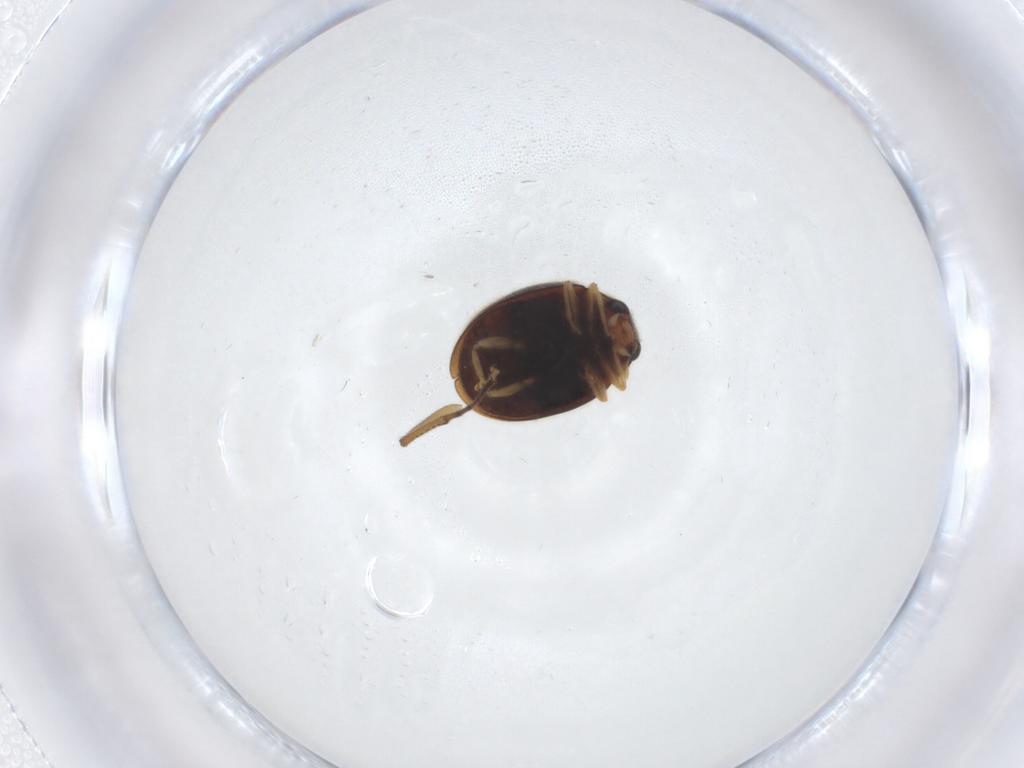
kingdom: Animalia
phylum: Arthropoda
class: Insecta
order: Coleoptera
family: Coccinellidae
